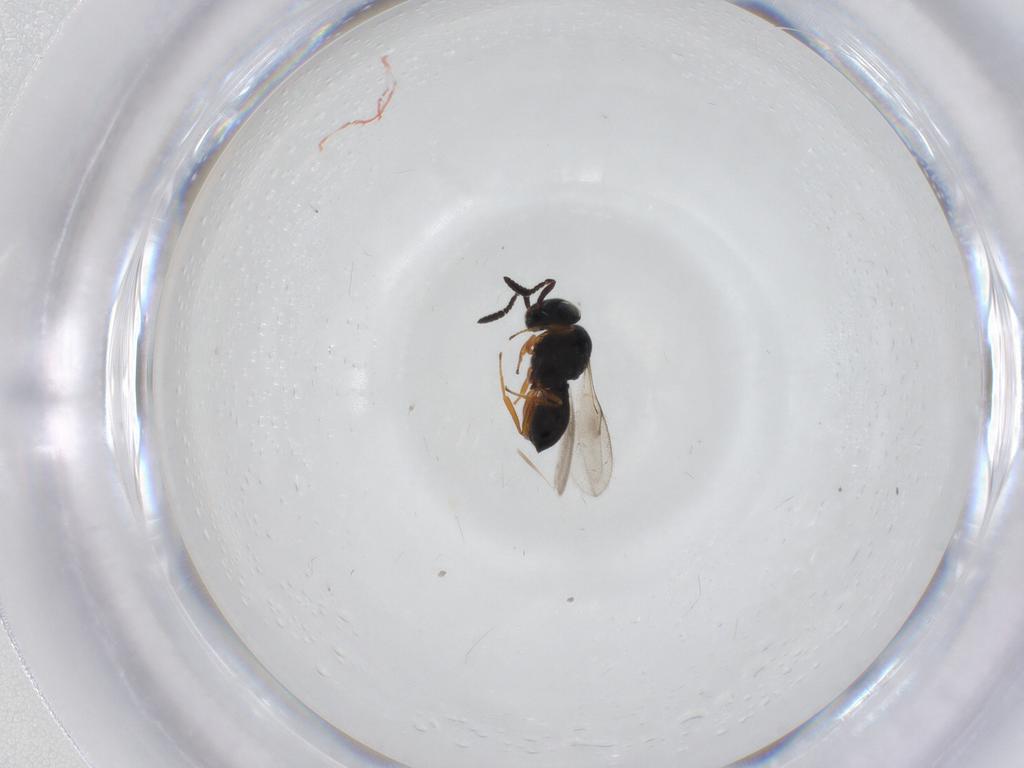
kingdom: Animalia
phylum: Arthropoda
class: Insecta
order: Hymenoptera
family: Scelionidae
